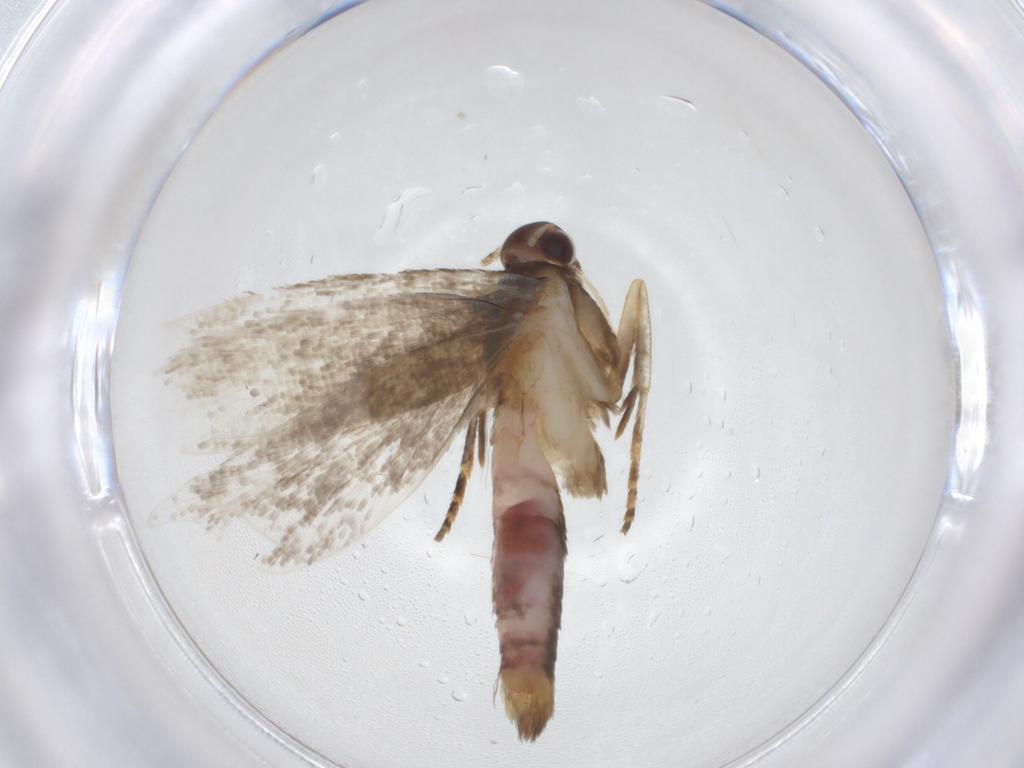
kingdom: Animalia
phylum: Arthropoda
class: Insecta
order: Lepidoptera
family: Gelechiidae
